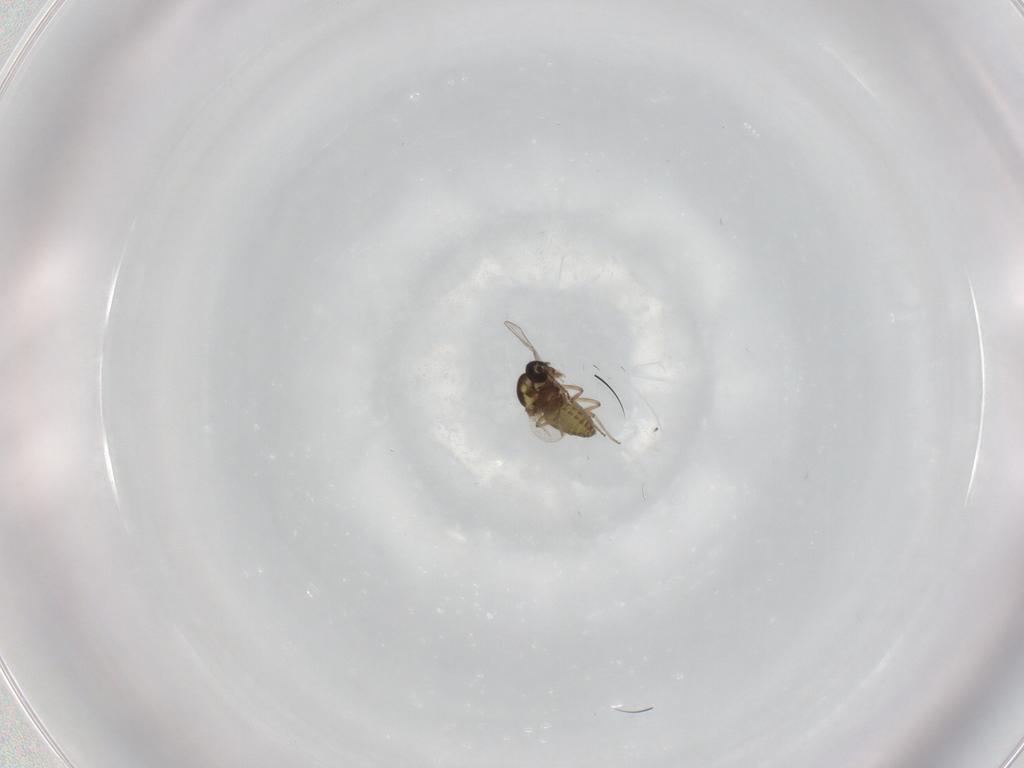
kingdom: Animalia
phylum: Arthropoda
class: Insecta
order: Diptera
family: Ceratopogonidae
